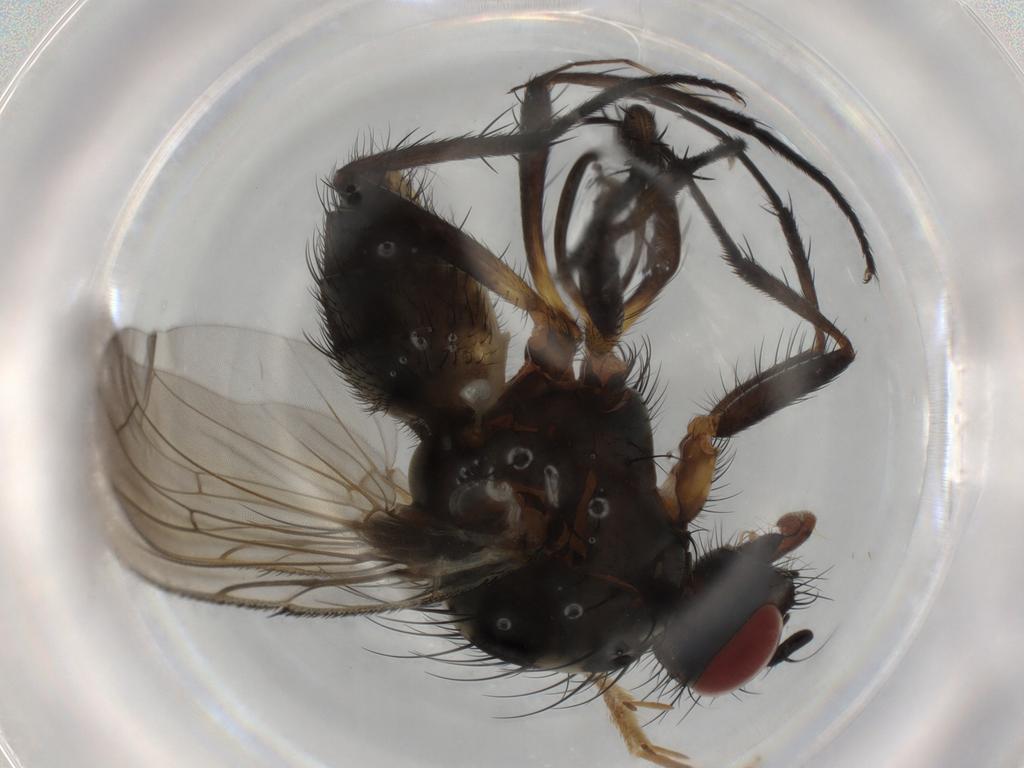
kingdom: Animalia
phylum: Arthropoda
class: Insecta
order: Diptera
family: Anthomyiidae
